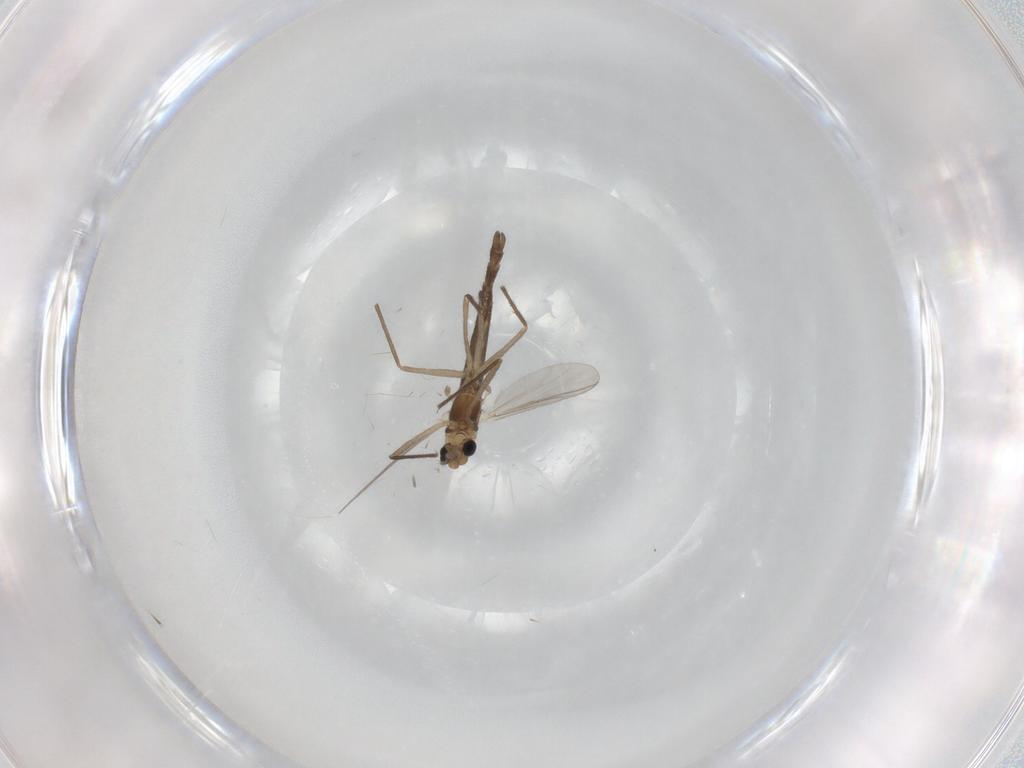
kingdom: Animalia
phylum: Arthropoda
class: Insecta
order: Diptera
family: Chironomidae
